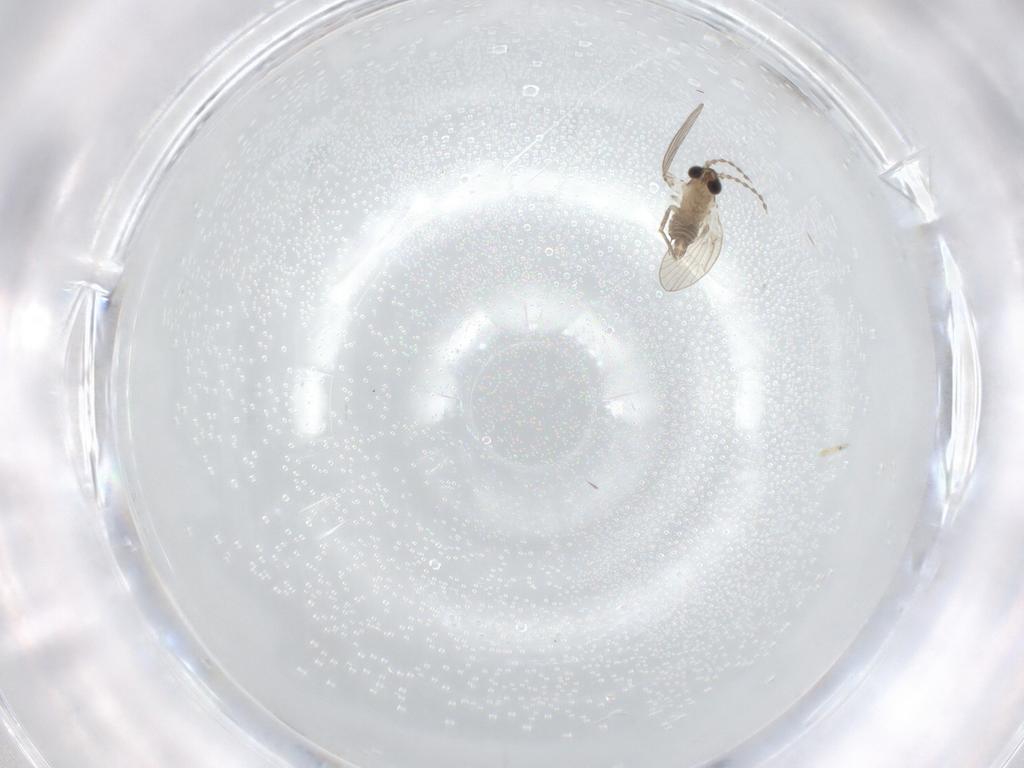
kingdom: Animalia
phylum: Arthropoda
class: Insecta
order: Diptera
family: Psychodidae
